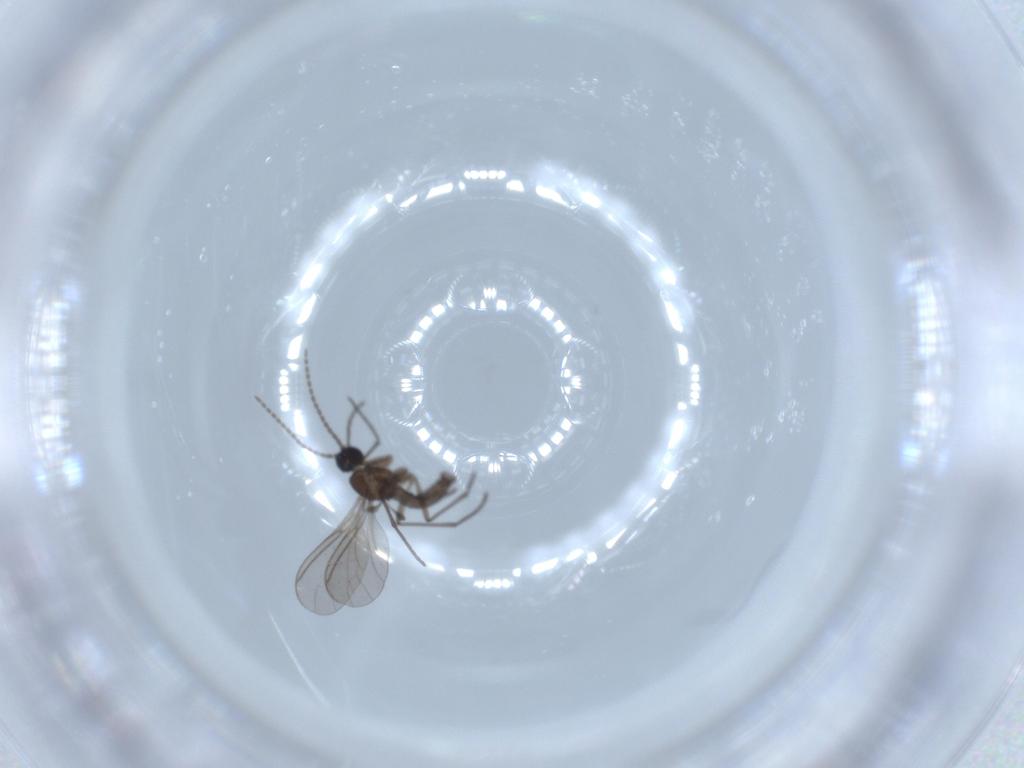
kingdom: Animalia
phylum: Arthropoda
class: Insecta
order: Diptera
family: Sciaridae
